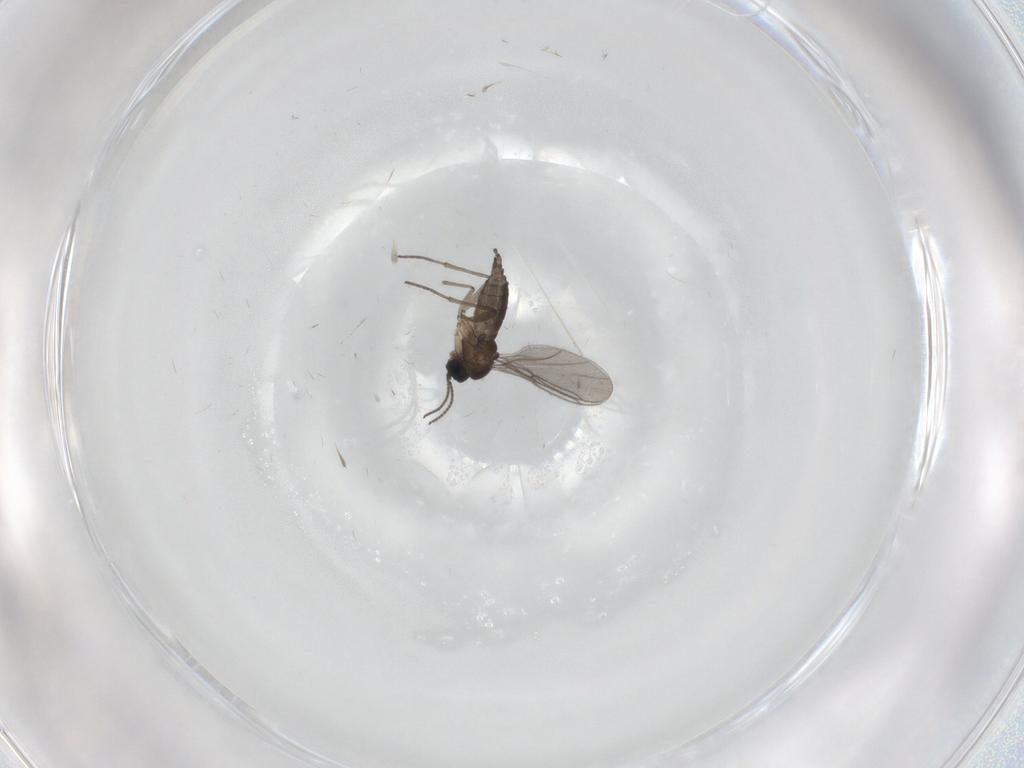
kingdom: Animalia
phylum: Arthropoda
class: Insecta
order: Diptera
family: Sciaridae
